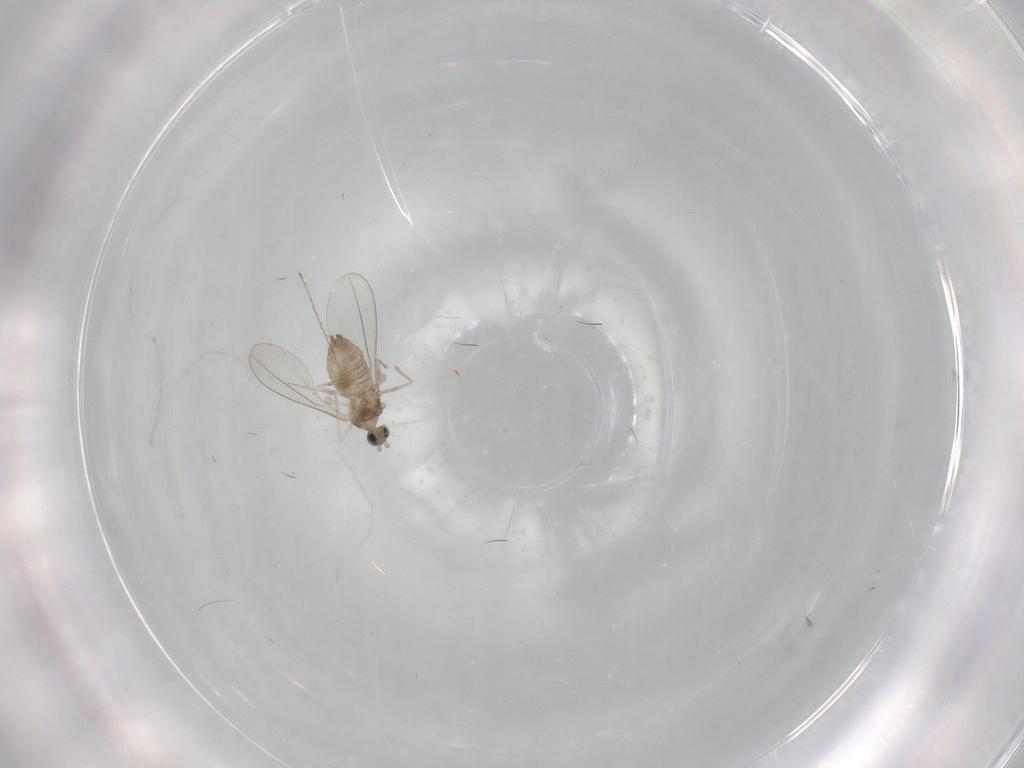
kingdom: Animalia
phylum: Arthropoda
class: Insecta
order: Diptera
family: Cecidomyiidae
